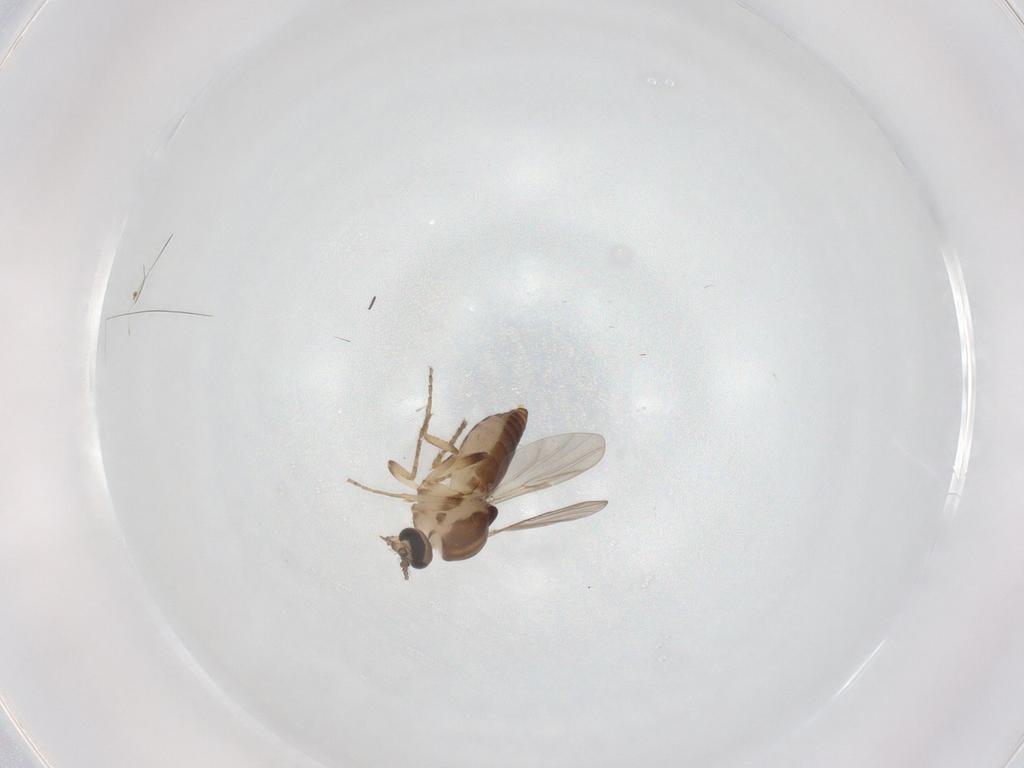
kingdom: Animalia
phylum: Arthropoda
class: Insecta
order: Diptera
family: Ceratopogonidae
